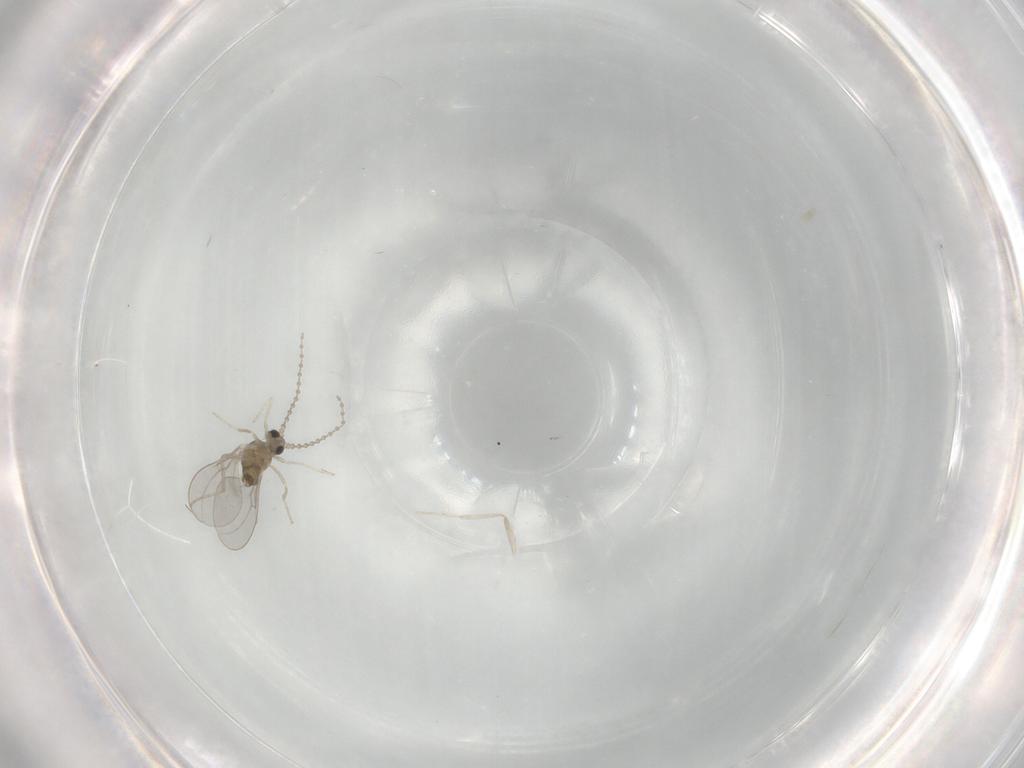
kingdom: Animalia
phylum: Arthropoda
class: Insecta
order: Diptera
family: Cecidomyiidae
